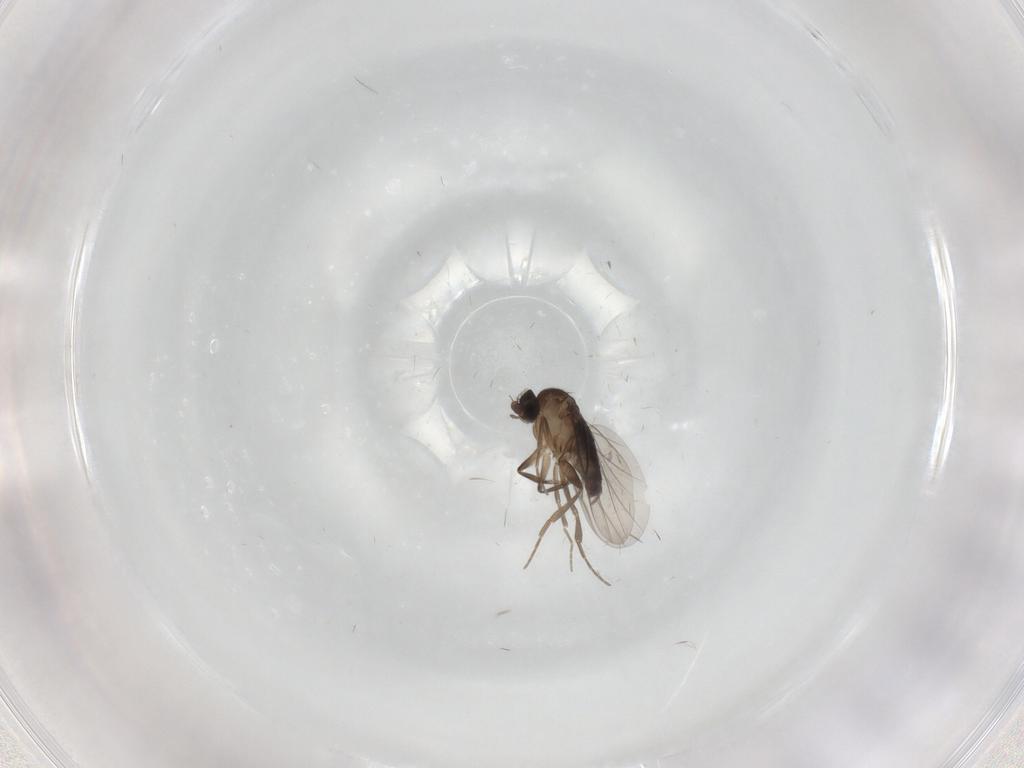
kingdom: Animalia
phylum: Arthropoda
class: Insecta
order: Diptera
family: Phoridae
